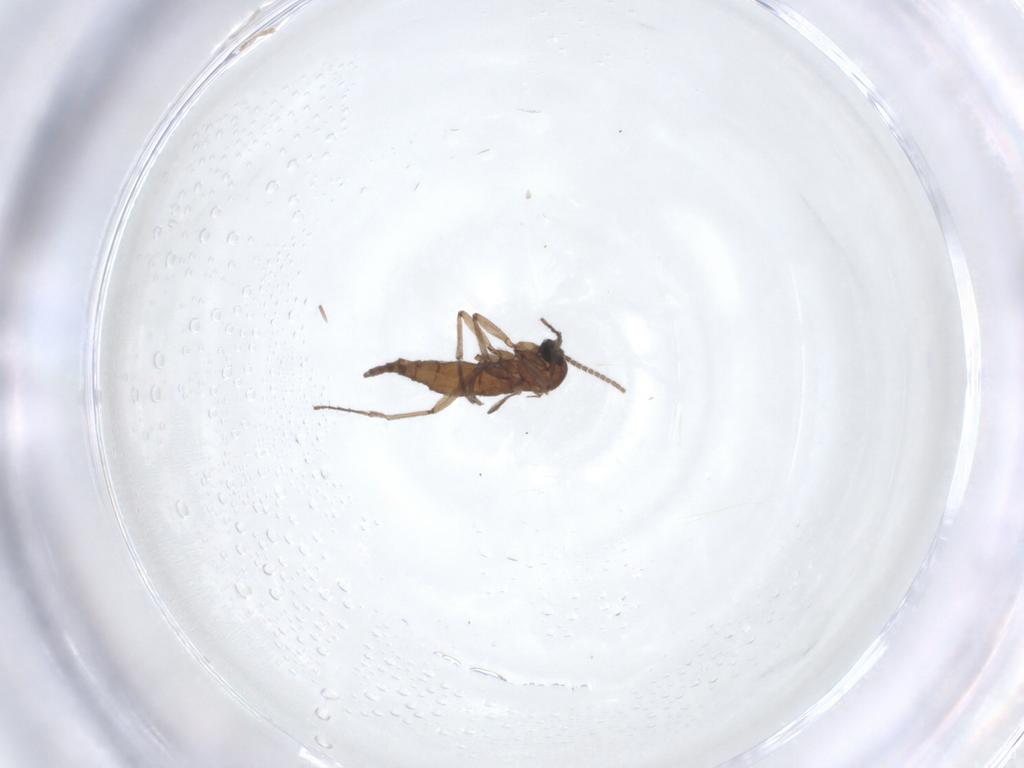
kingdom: Animalia
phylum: Arthropoda
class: Insecta
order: Diptera
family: Sciaridae
